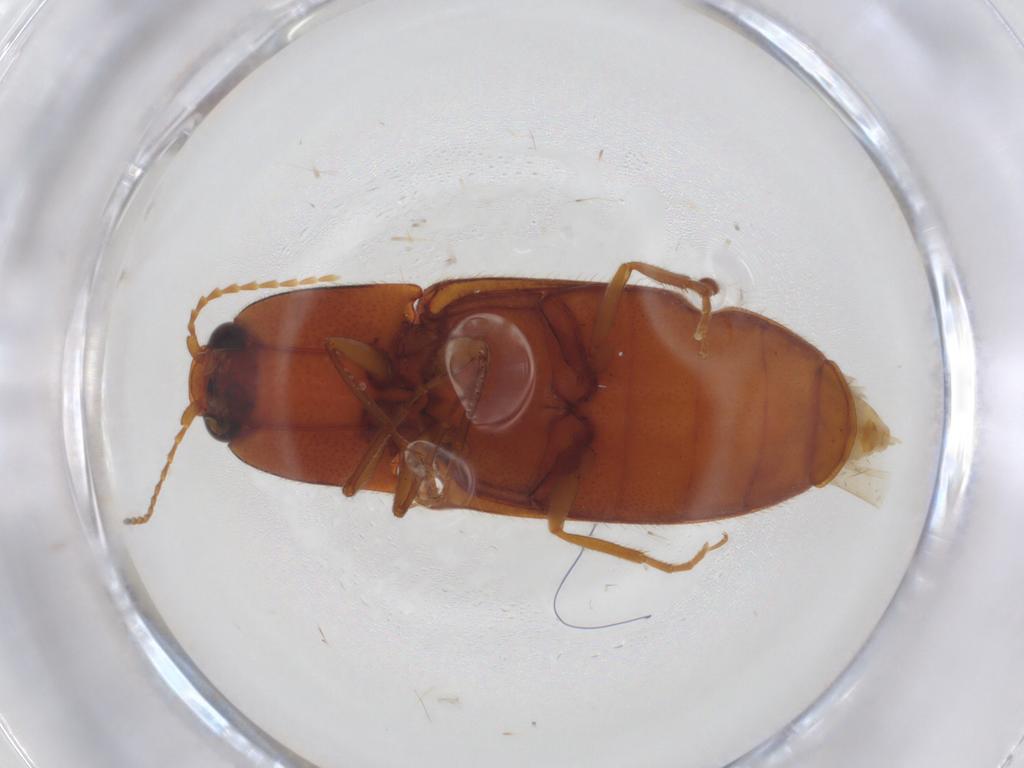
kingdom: Animalia
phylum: Arthropoda
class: Insecta
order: Coleoptera
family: Elateridae
